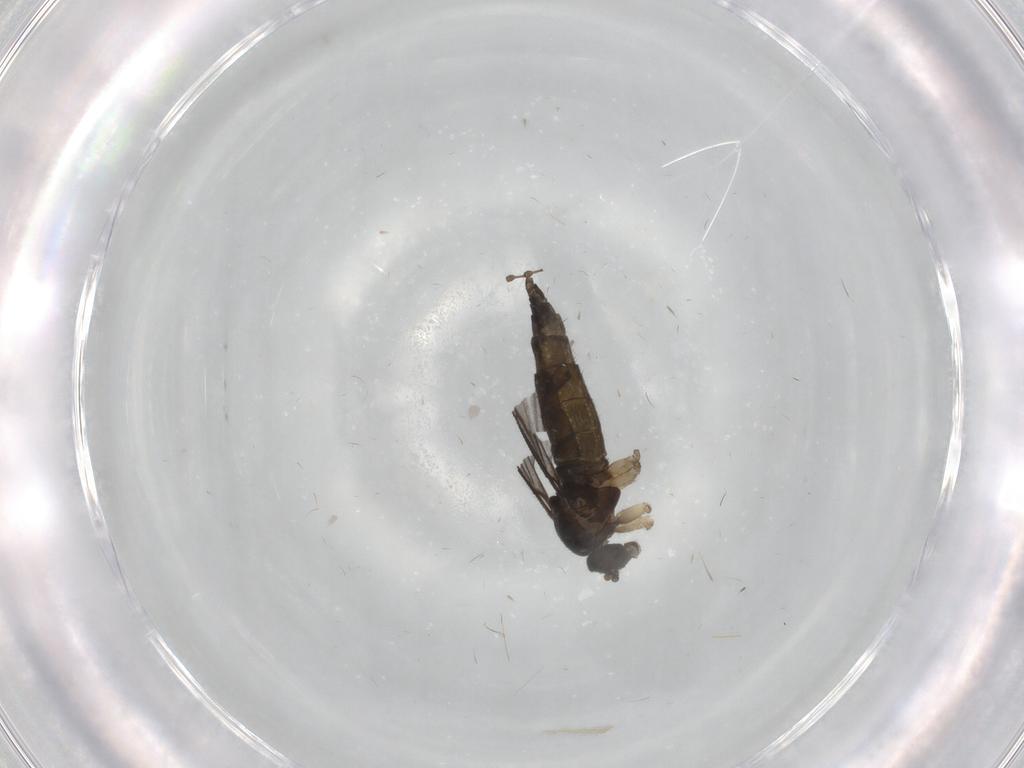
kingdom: Animalia
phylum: Arthropoda
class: Insecta
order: Diptera
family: Sciaridae
